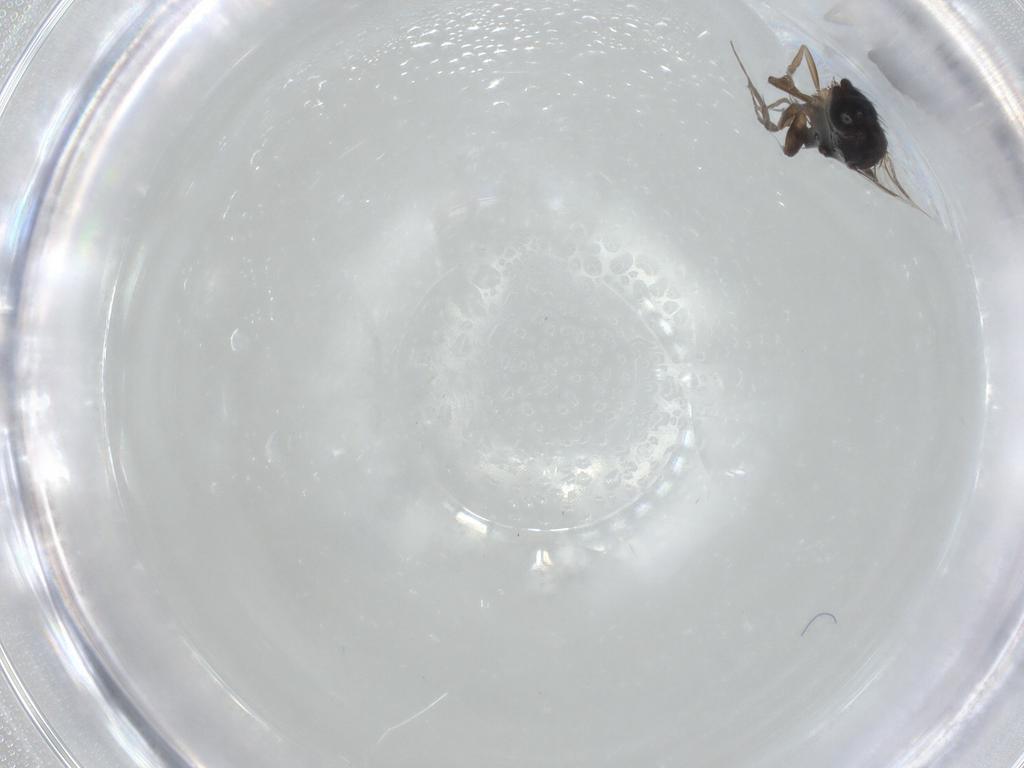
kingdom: Animalia
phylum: Arthropoda
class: Insecta
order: Diptera
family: Phoridae
